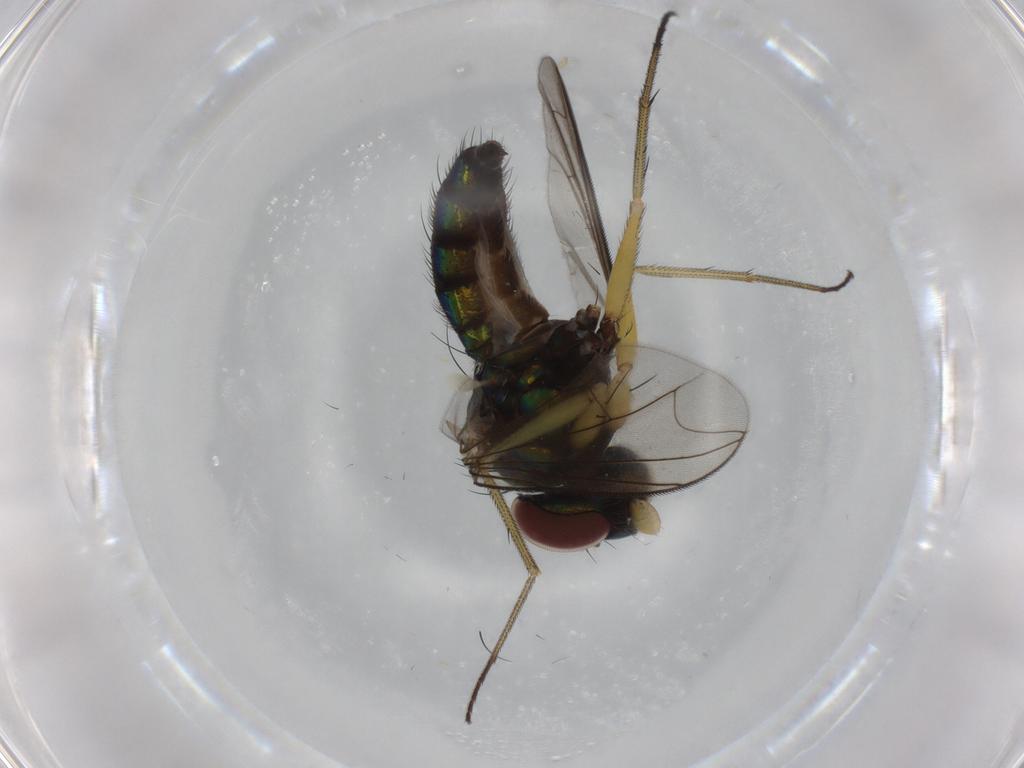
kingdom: Animalia
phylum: Arthropoda
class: Insecta
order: Diptera
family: Dolichopodidae
